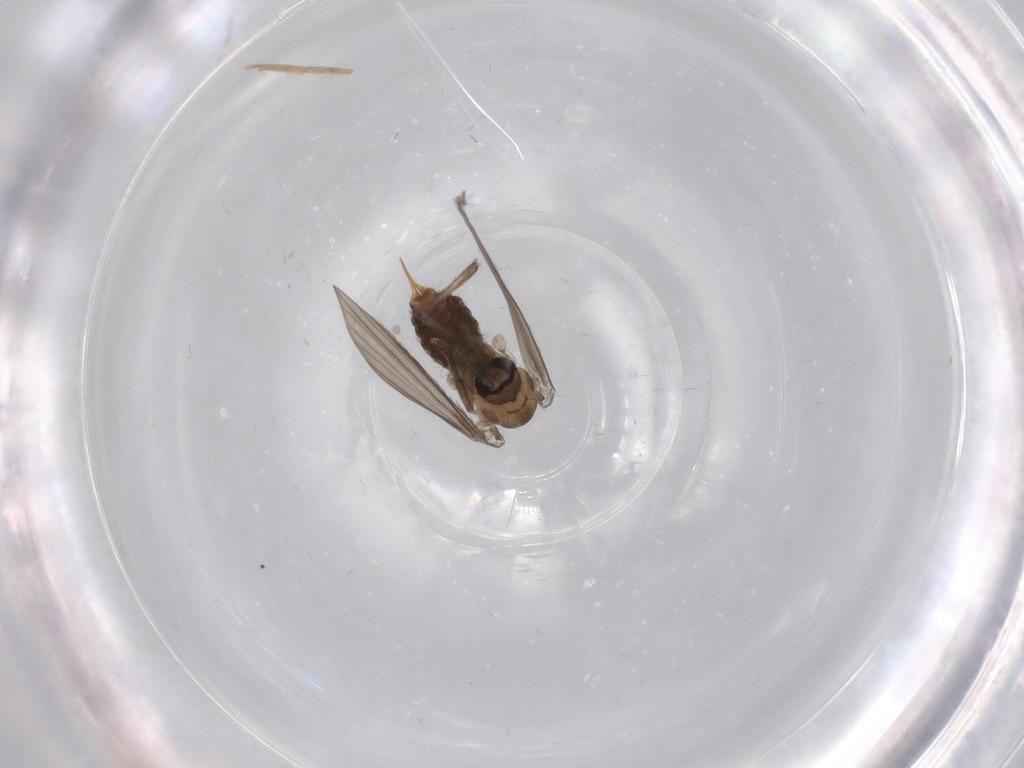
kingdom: Animalia
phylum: Arthropoda
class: Insecta
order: Diptera
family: Psychodidae
